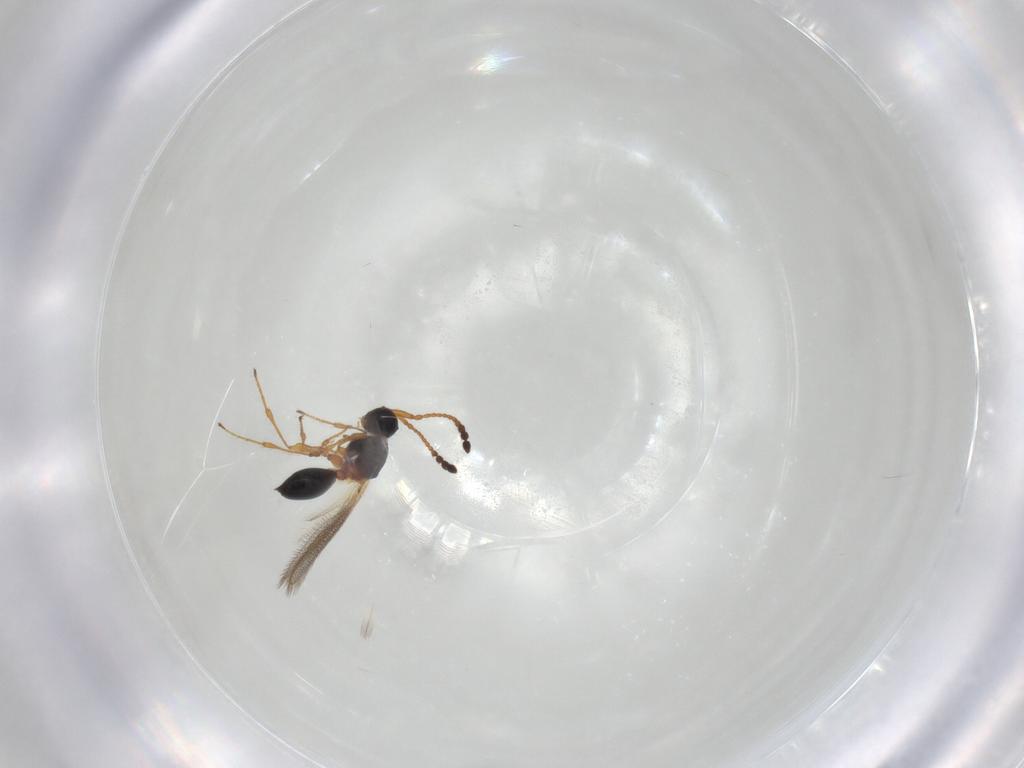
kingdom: Animalia
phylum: Arthropoda
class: Insecta
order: Hymenoptera
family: Diapriidae
